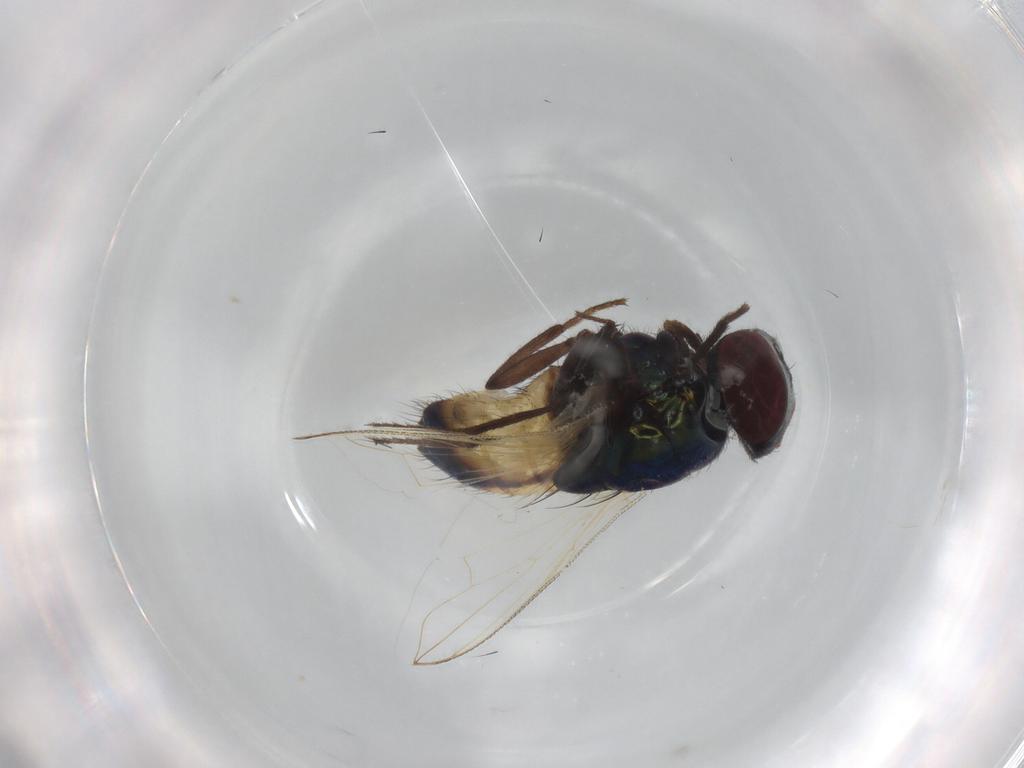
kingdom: Animalia
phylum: Arthropoda
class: Insecta
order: Diptera
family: Muscidae
